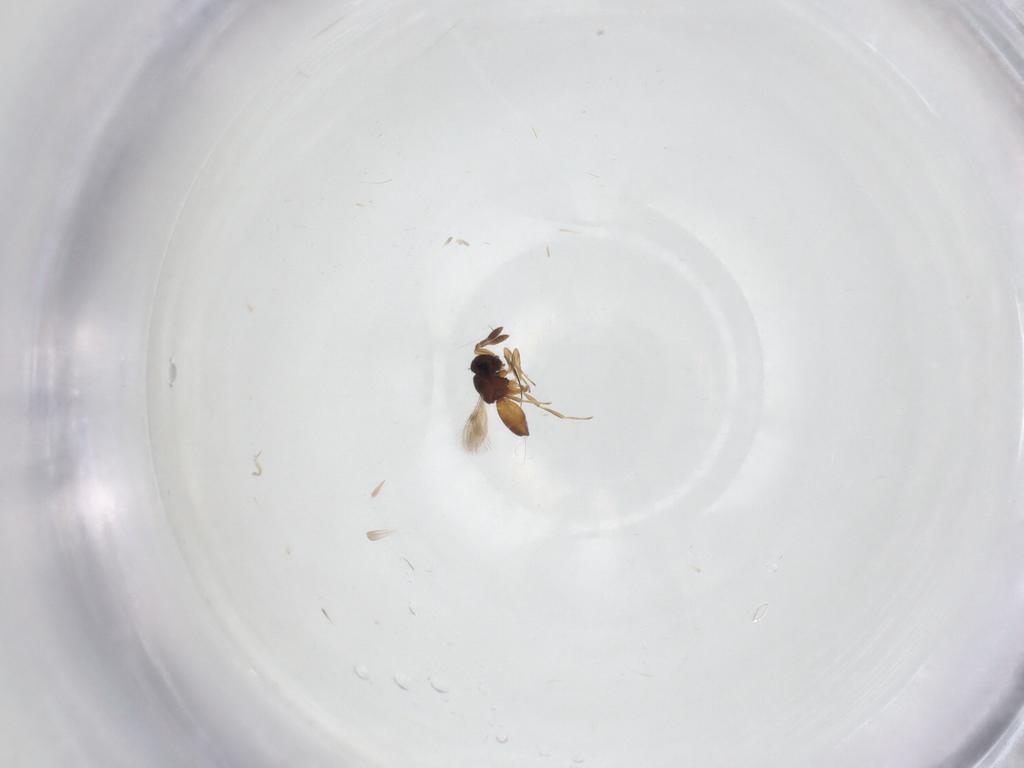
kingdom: Animalia
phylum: Arthropoda
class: Insecta
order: Hymenoptera
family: Scelionidae
